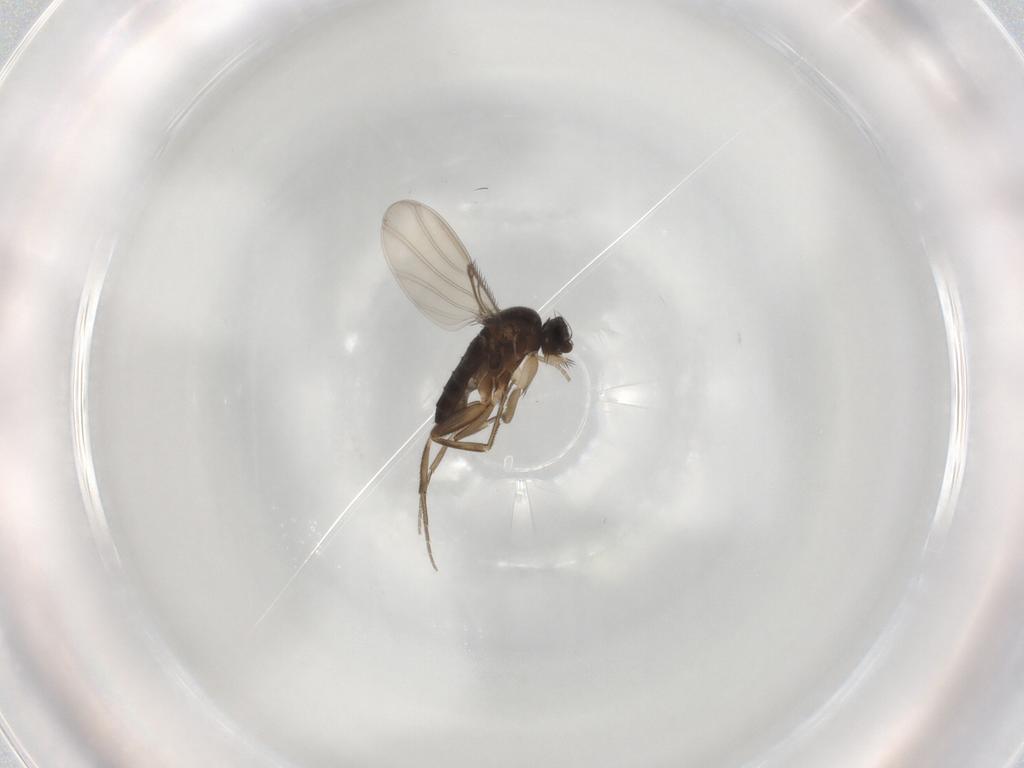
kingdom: Animalia
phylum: Arthropoda
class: Insecta
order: Diptera
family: Phoridae
